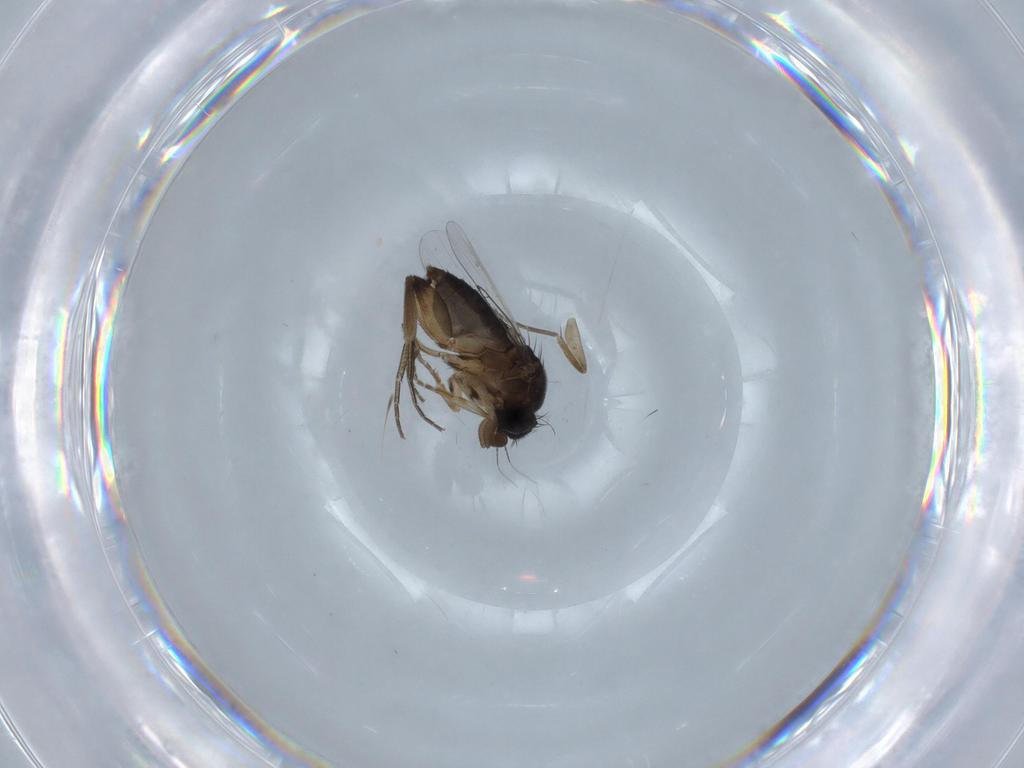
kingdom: Animalia
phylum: Arthropoda
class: Insecta
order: Diptera
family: Phoridae
